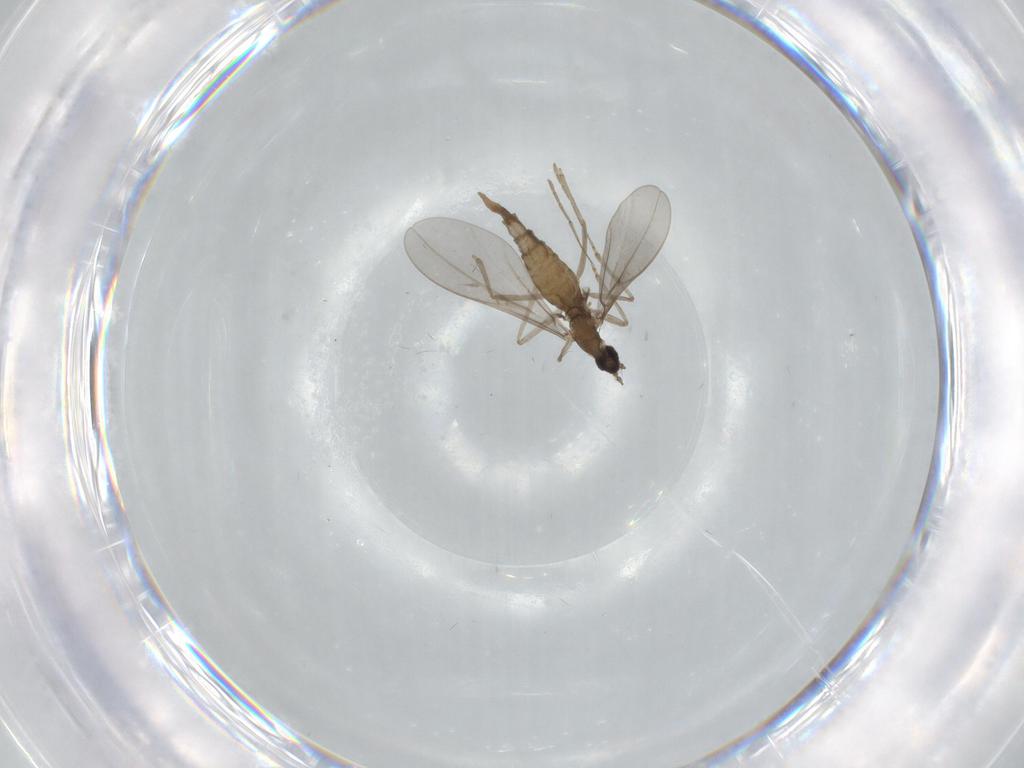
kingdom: Animalia
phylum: Arthropoda
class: Insecta
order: Diptera
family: Cecidomyiidae
